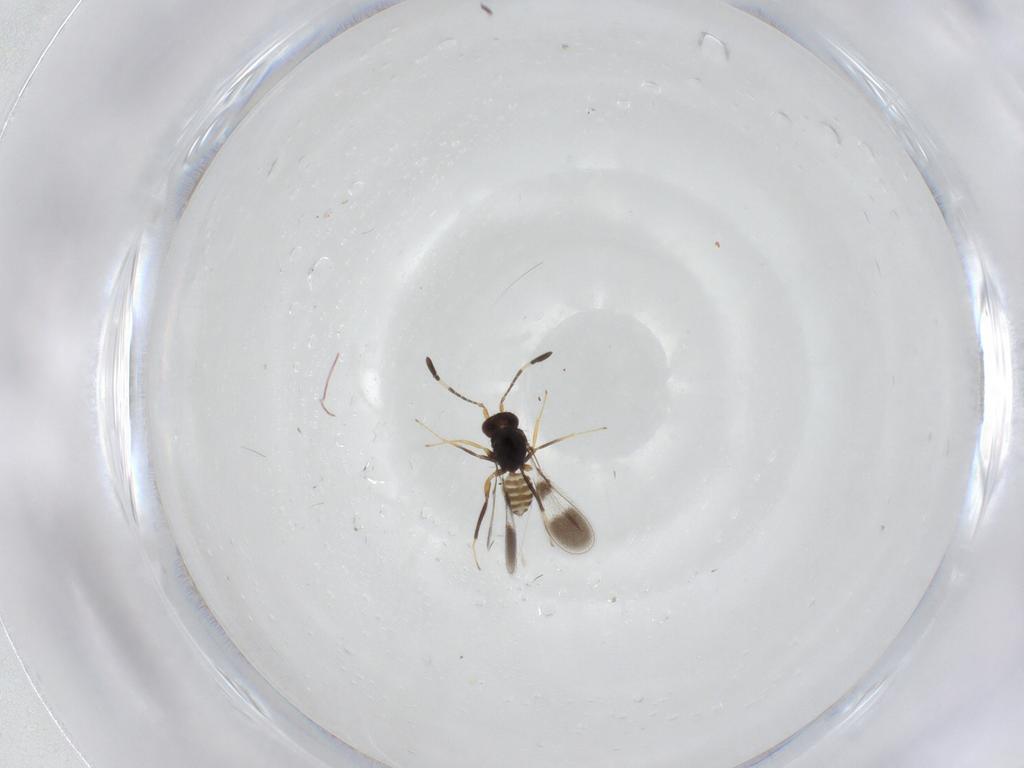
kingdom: Animalia
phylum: Arthropoda
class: Insecta
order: Hymenoptera
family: Mymaridae
